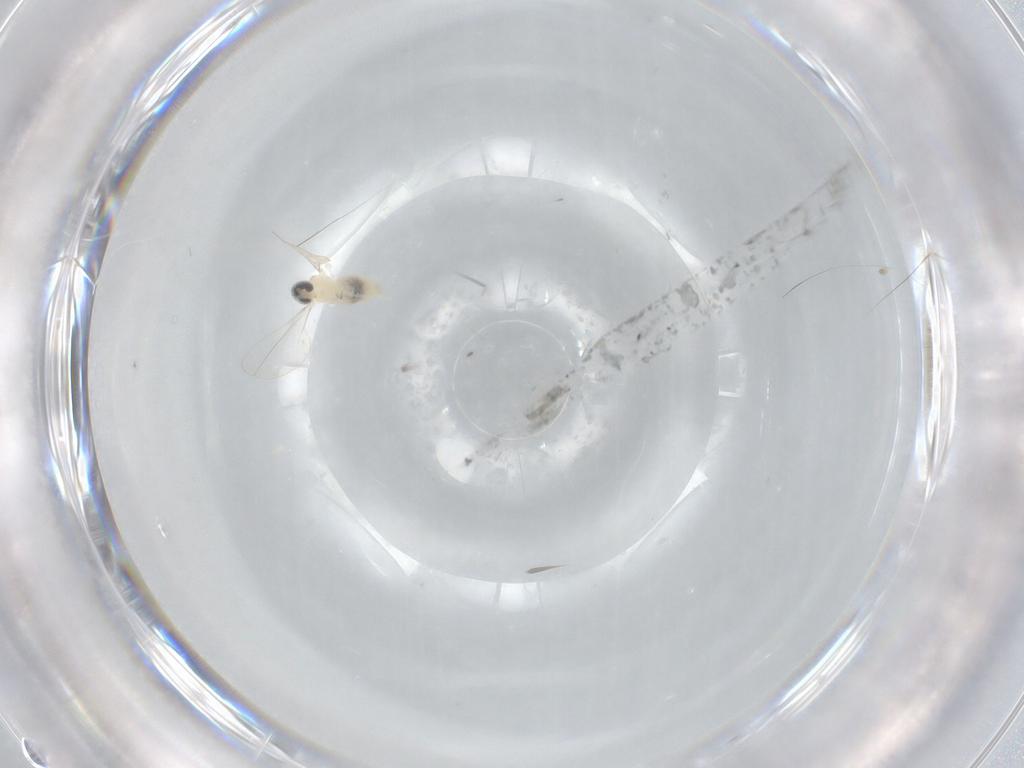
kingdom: Animalia
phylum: Arthropoda
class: Insecta
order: Diptera
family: Cecidomyiidae
